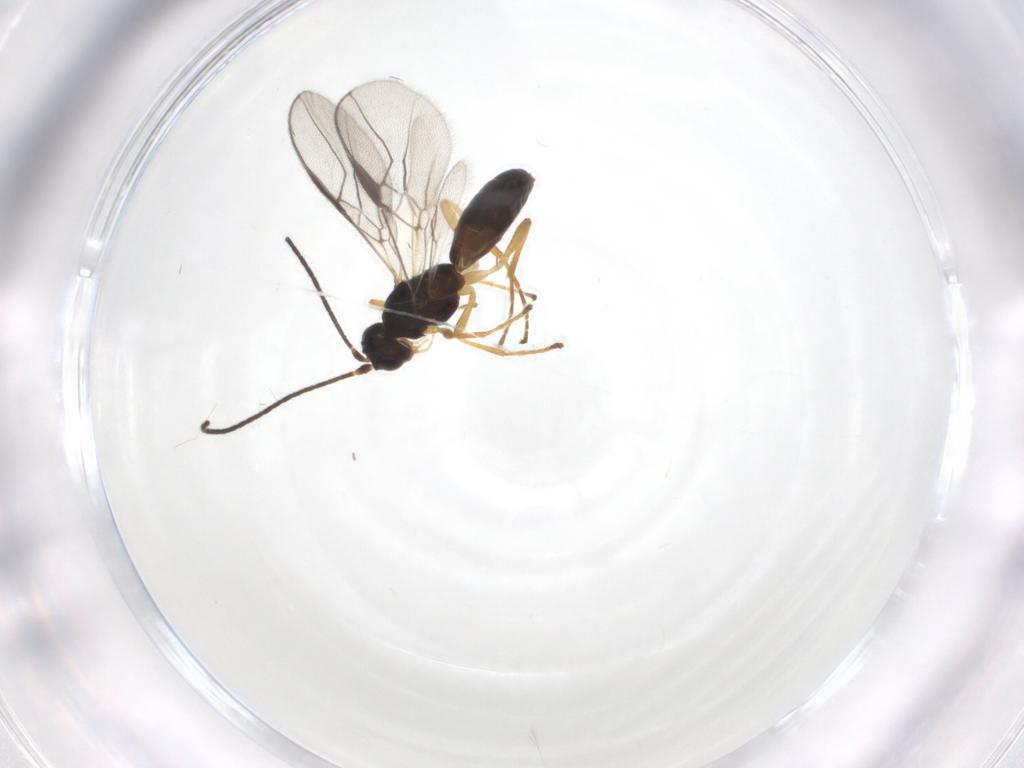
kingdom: Animalia
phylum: Arthropoda
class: Insecta
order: Hymenoptera
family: Braconidae
